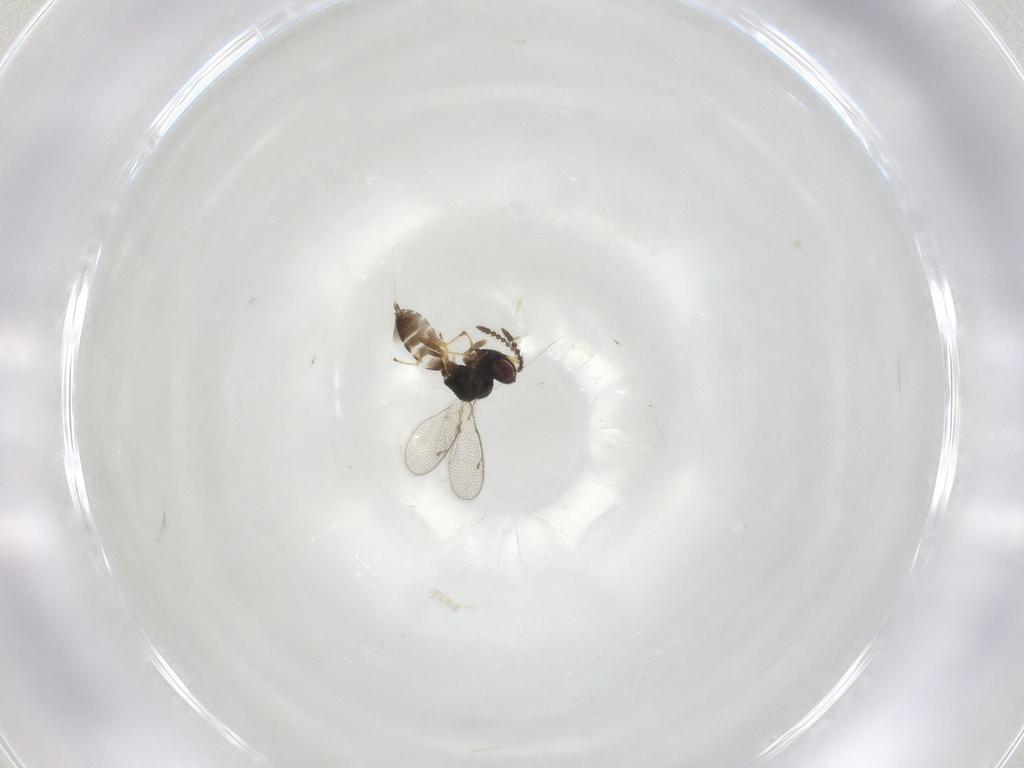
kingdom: Animalia
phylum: Arthropoda
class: Insecta
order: Hymenoptera
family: Pteromalidae
